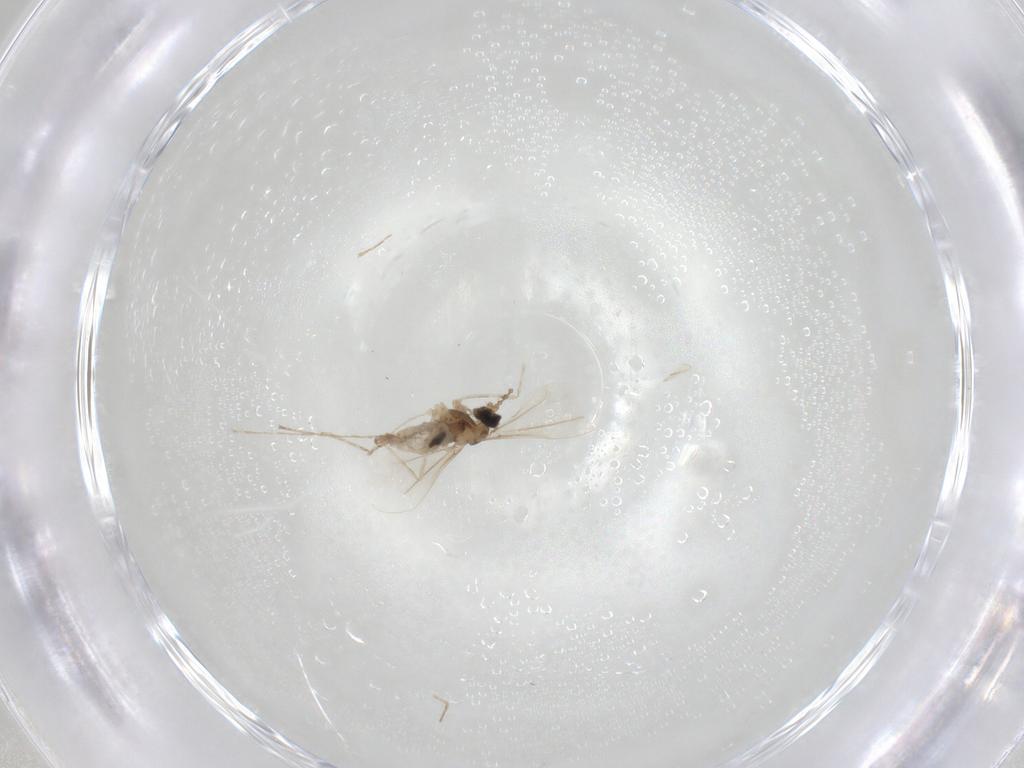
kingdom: Animalia
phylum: Arthropoda
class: Insecta
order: Diptera
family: Cecidomyiidae
